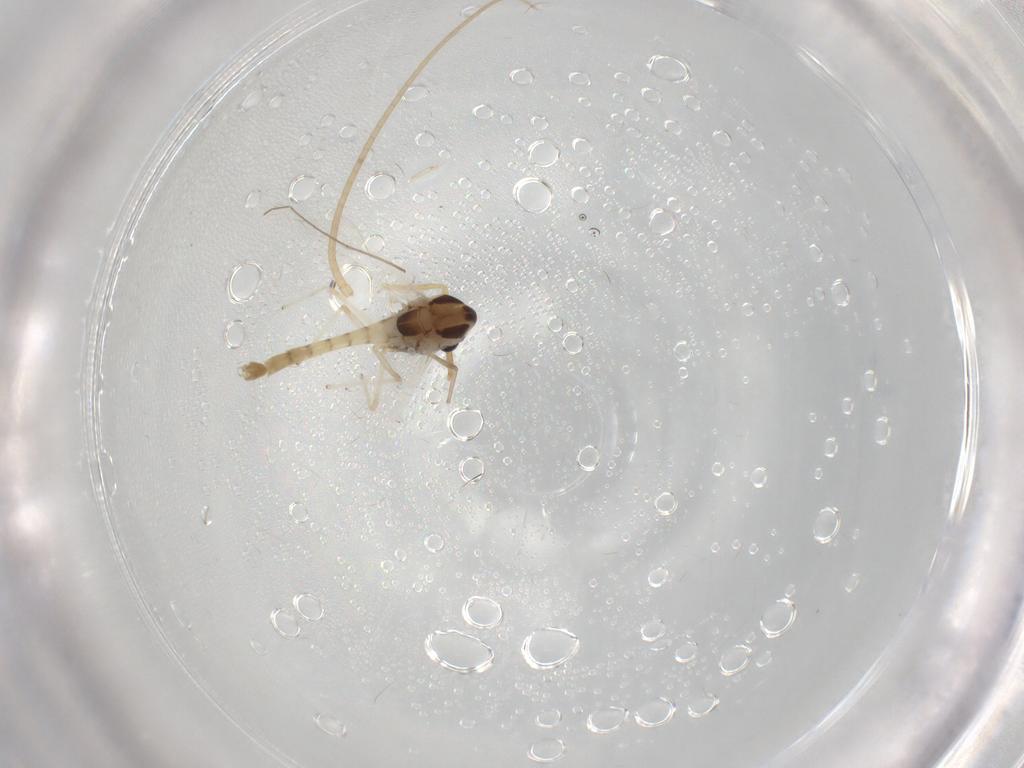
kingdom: Animalia
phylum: Arthropoda
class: Insecta
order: Diptera
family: Chironomidae
